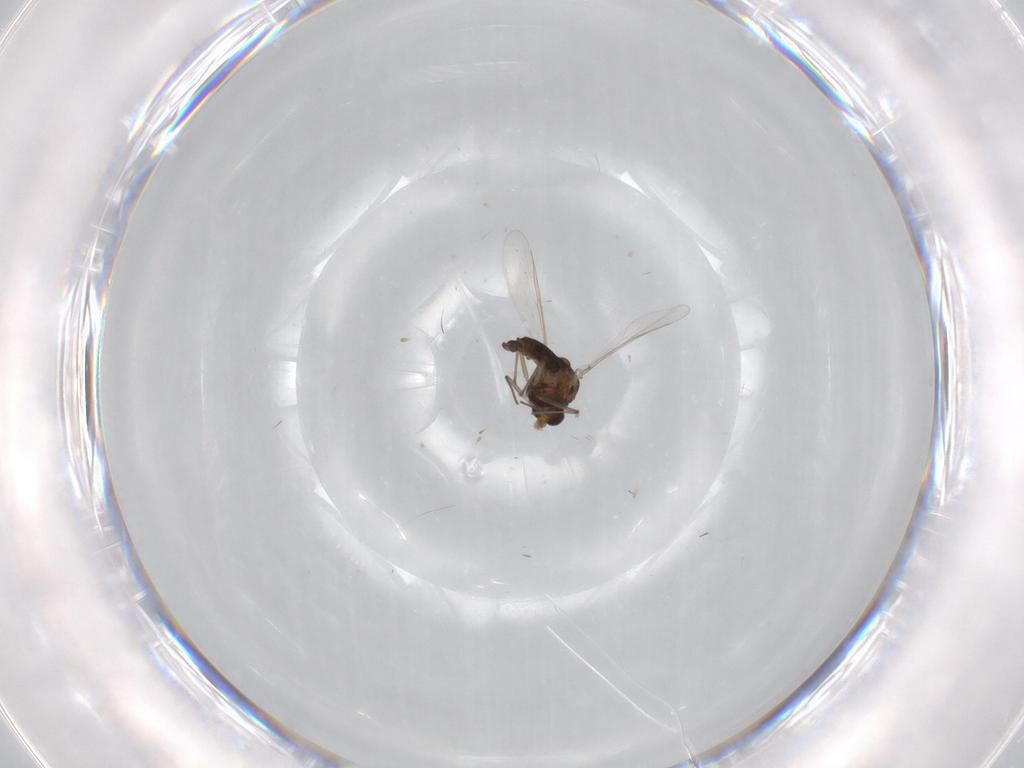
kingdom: Animalia
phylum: Arthropoda
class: Insecta
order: Diptera
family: Chironomidae
